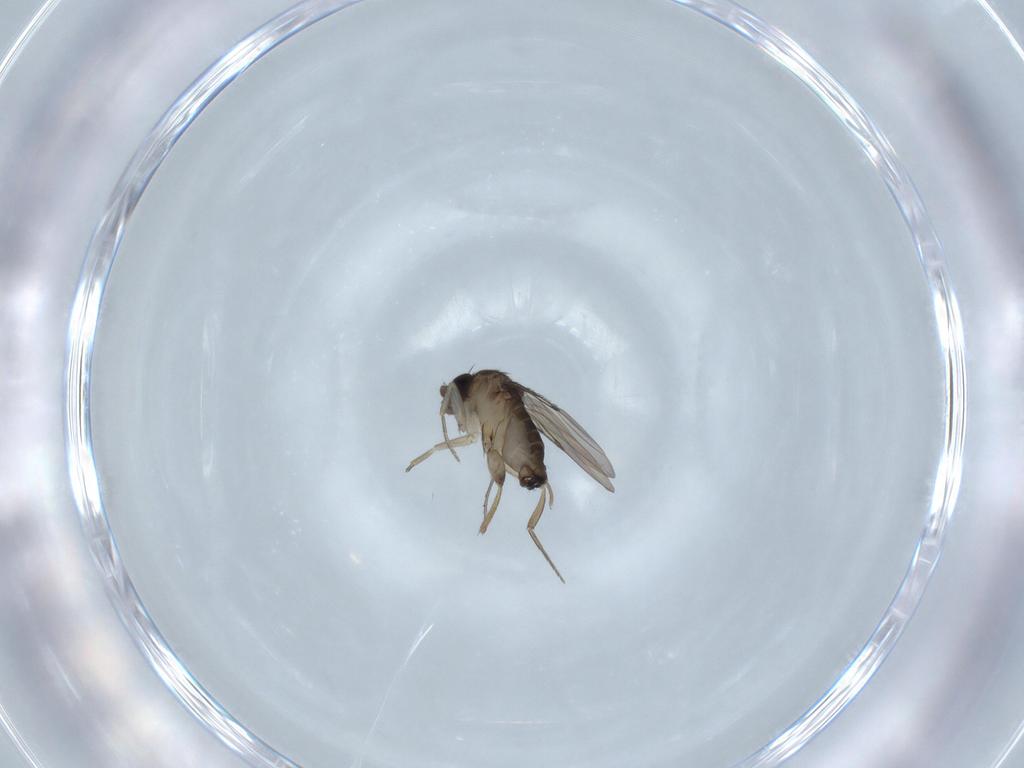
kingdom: Animalia
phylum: Arthropoda
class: Insecta
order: Diptera
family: Phoridae
